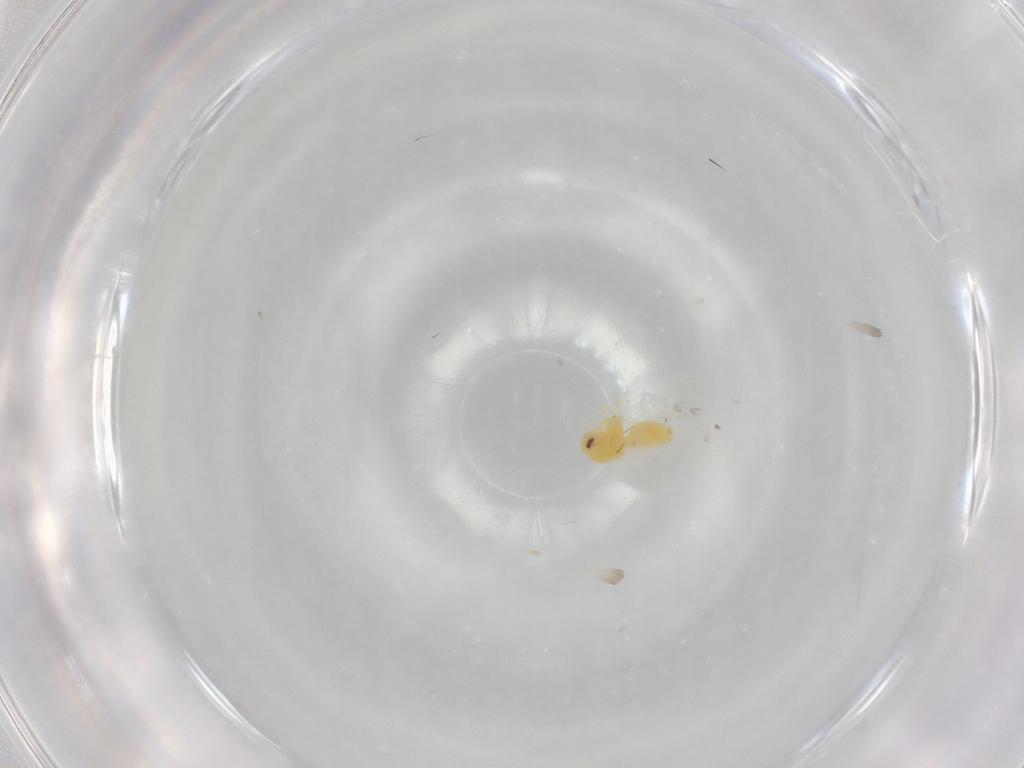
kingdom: Animalia
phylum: Arthropoda
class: Insecta
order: Hemiptera
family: Aleyrodidae
